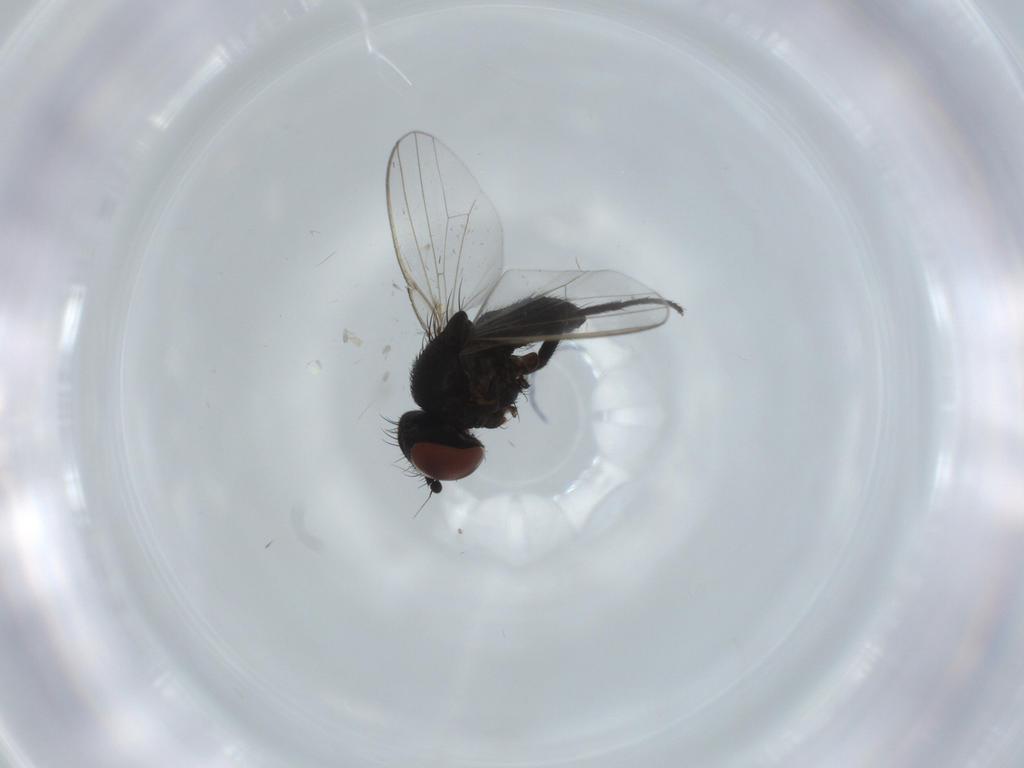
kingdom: Animalia
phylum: Arthropoda
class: Insecta
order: Diptera
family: Milichiidae
